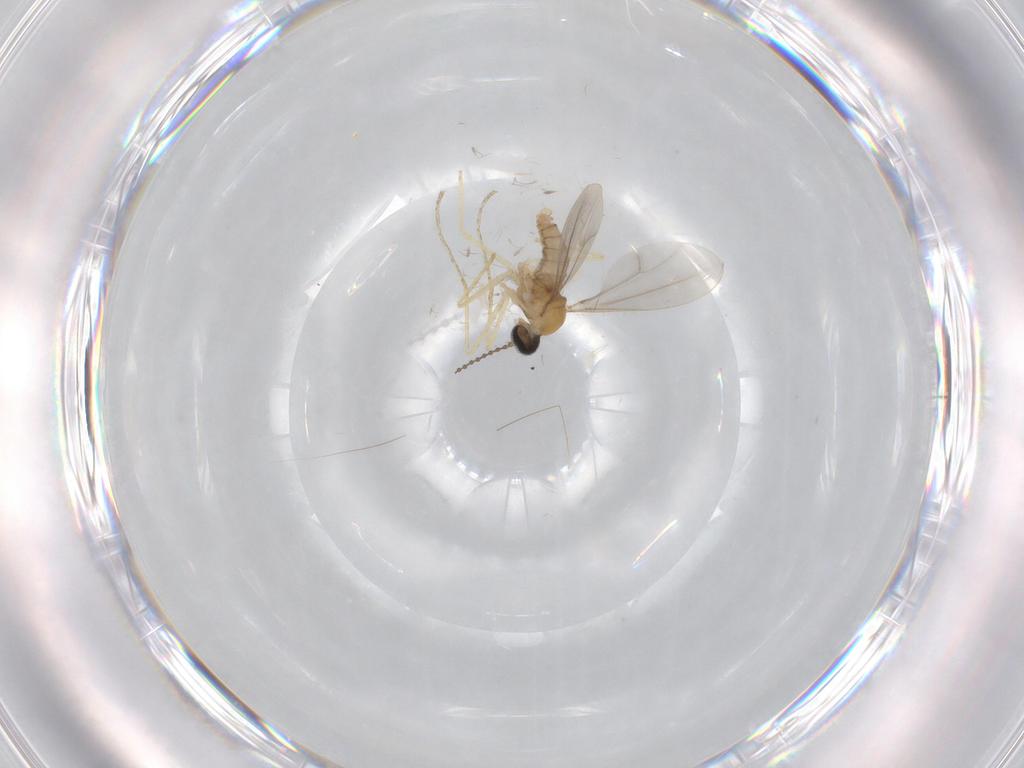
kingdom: Animalia
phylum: Arthropoda
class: Insecta
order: Diptera
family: Cecidomyiidae
